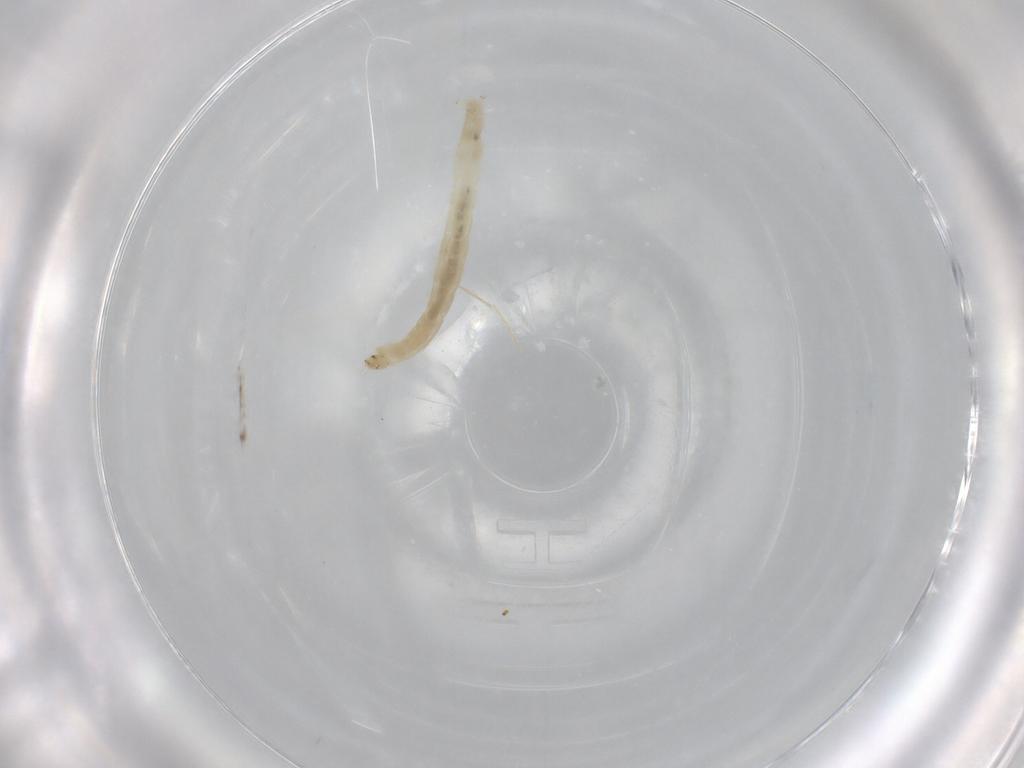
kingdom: Animalia
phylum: Arthropoda
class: Insecta
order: Diptera
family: Chironomidae
